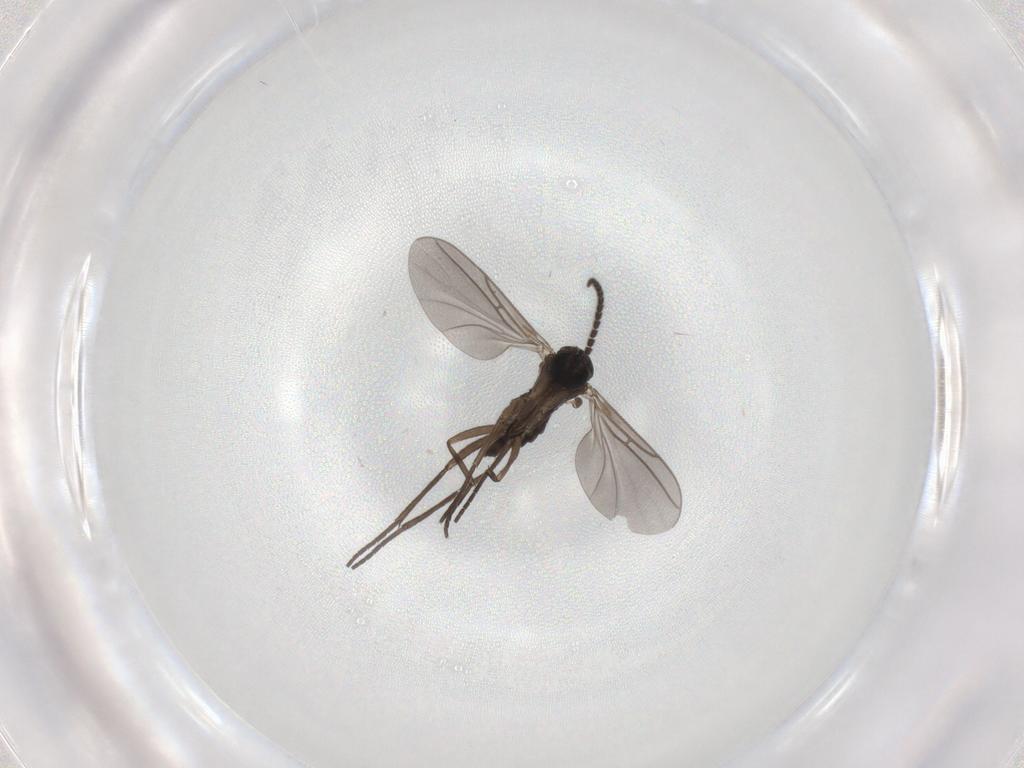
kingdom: Animalia
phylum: Arthropoda
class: Insecta
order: Diptera
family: Sciaridae
